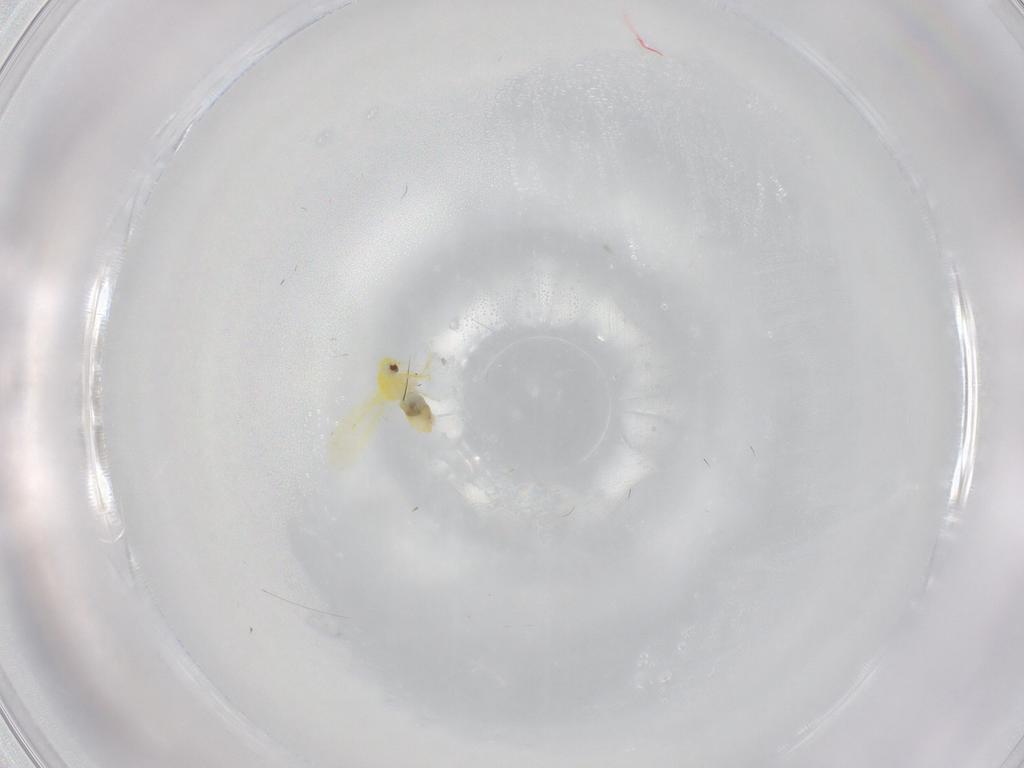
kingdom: Animalia
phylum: Arthropoda
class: Insecta
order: Hemiptera
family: Aleyrodidae
